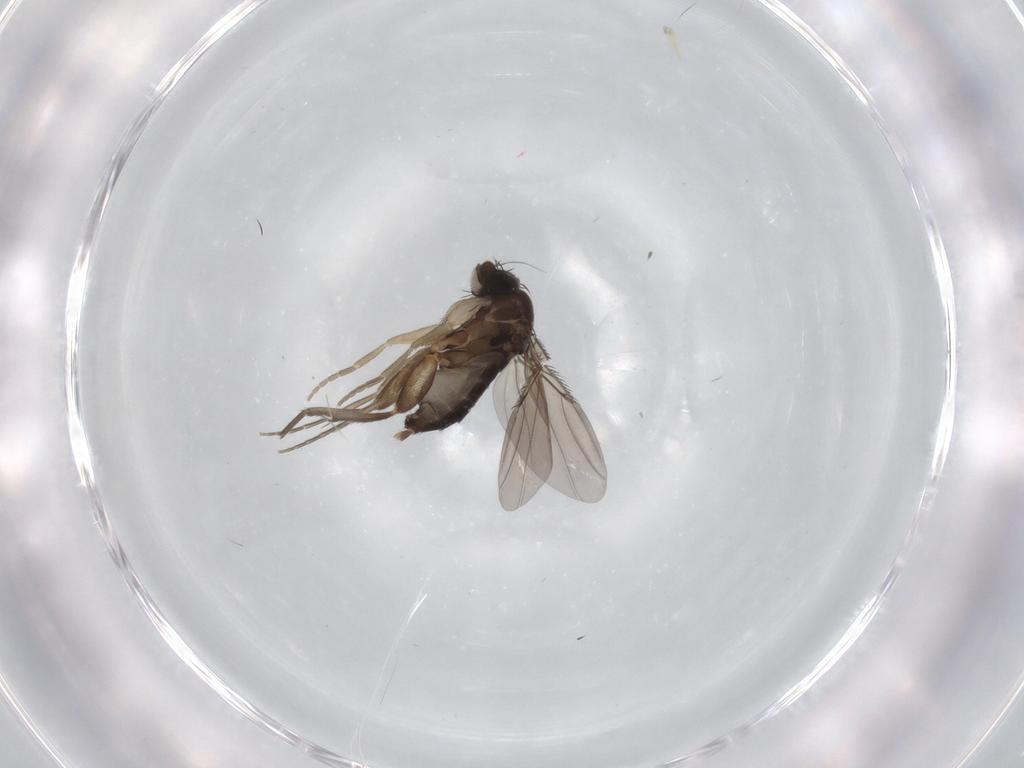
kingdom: Animalia
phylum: Arthropoda
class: Insecta
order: Diptera
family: Phoridae
